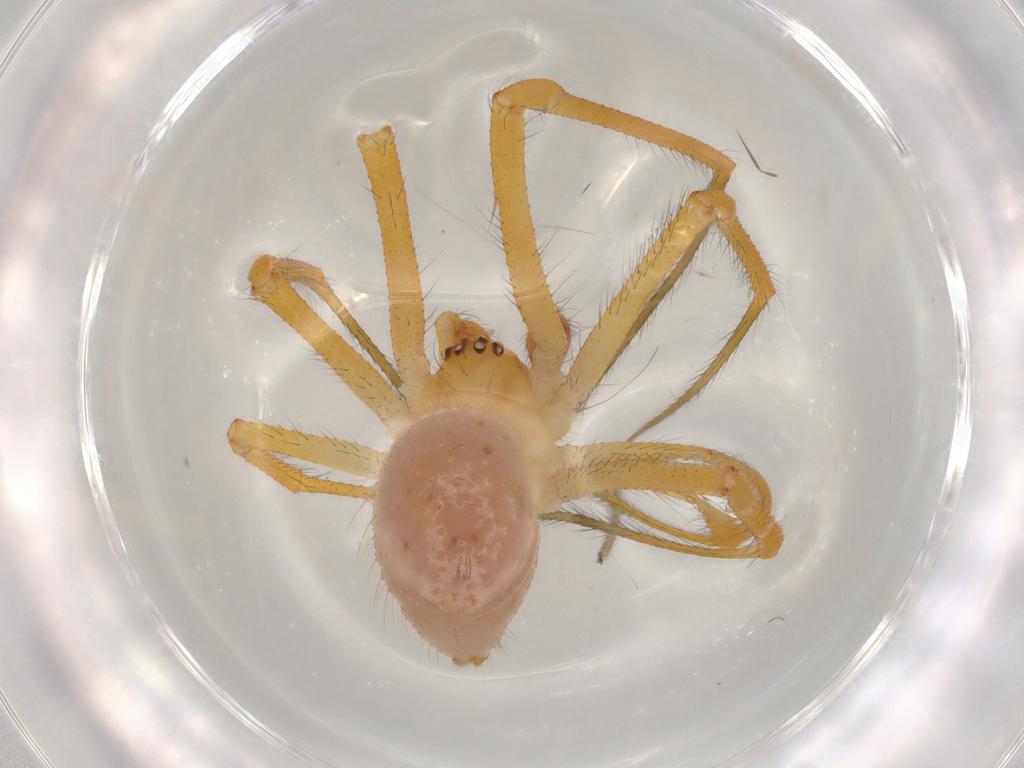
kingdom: Animalia
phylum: Arthropoda
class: Arachnida
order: Araneae
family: Theridiidae
